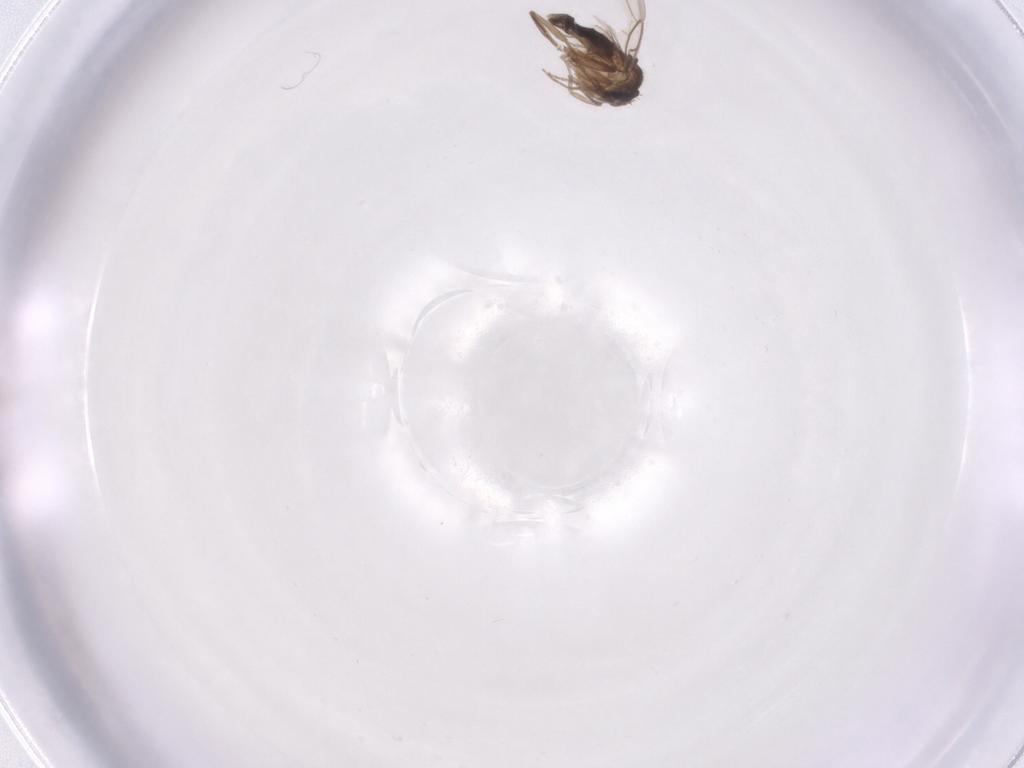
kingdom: Animalia
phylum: Arthropoda
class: Insecta
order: Diptera
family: Phoridae
